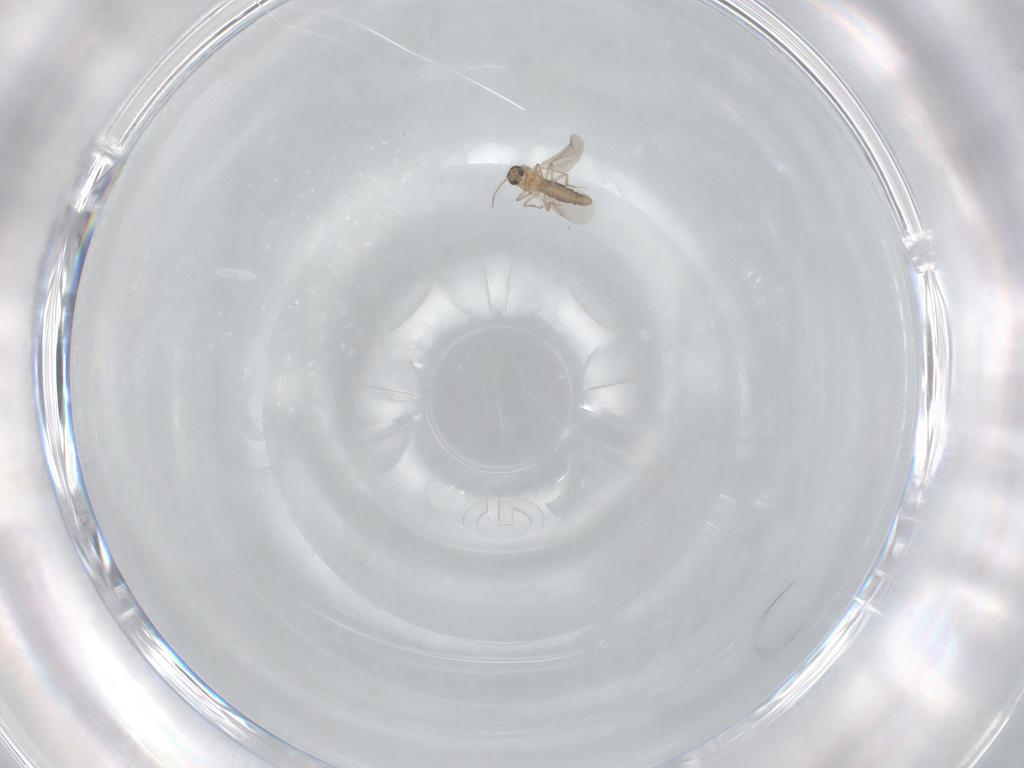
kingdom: Animalia
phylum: Arthropoda
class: Insecta
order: Diptera
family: Ceratopogonidae
